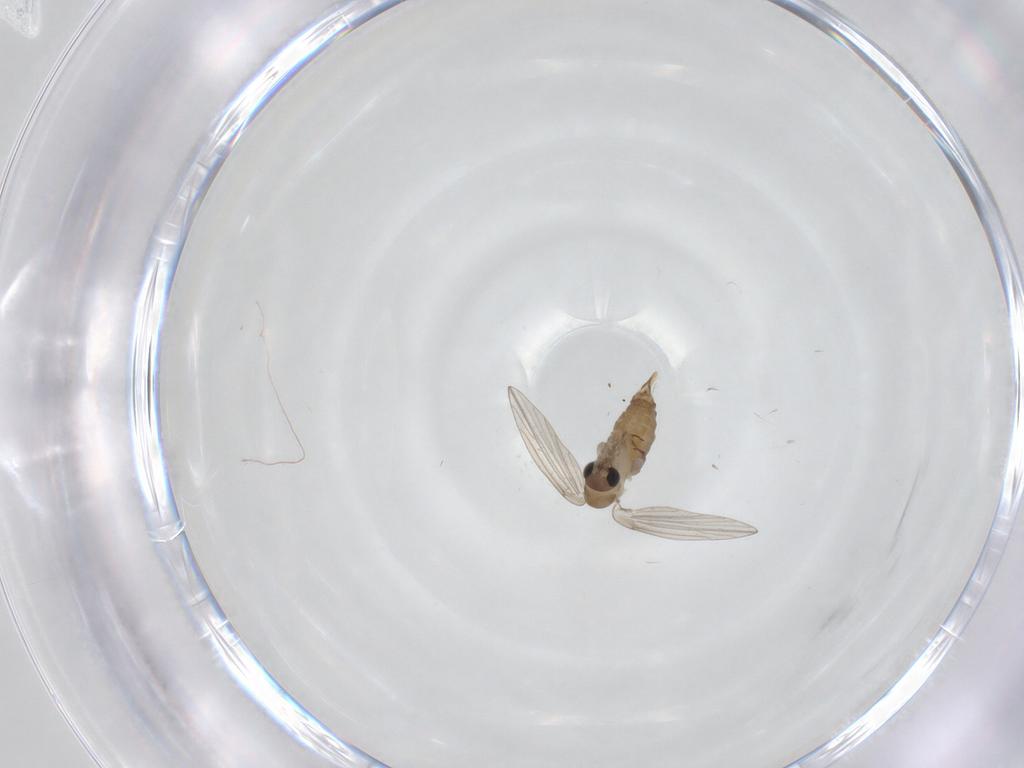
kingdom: Animalia
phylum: Arthropoda
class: Insecta
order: Diptera
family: Psychodidae
